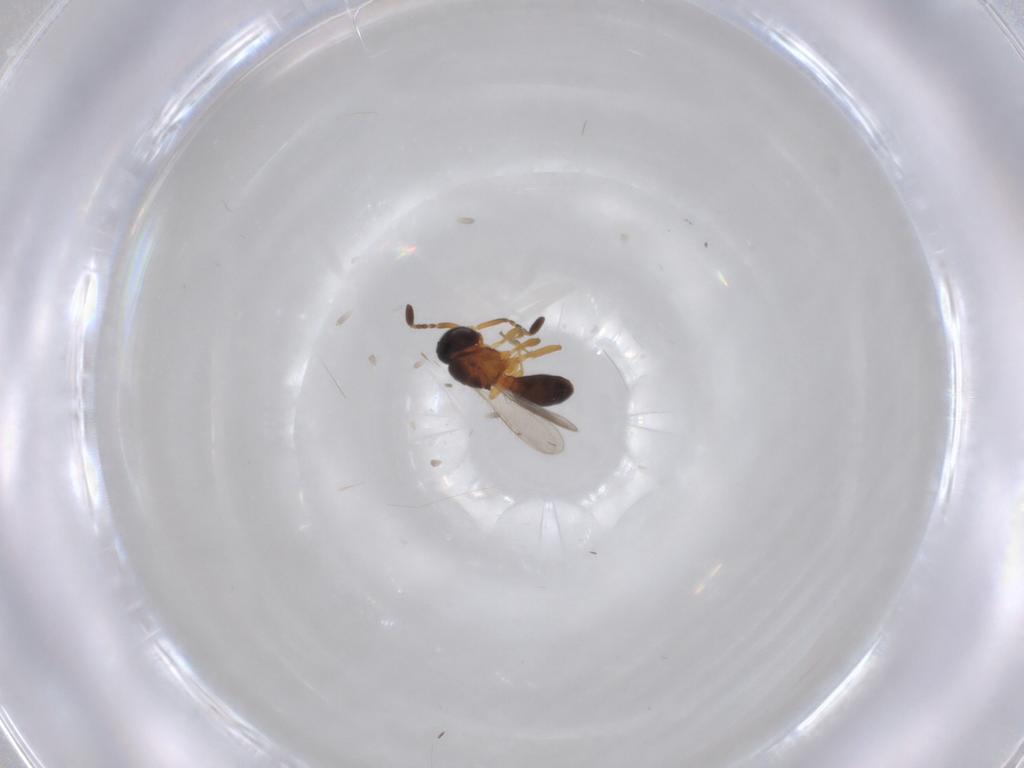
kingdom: Animalia
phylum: Arthropoda
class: Insecta
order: Hymenoptera
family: Scelionidae
